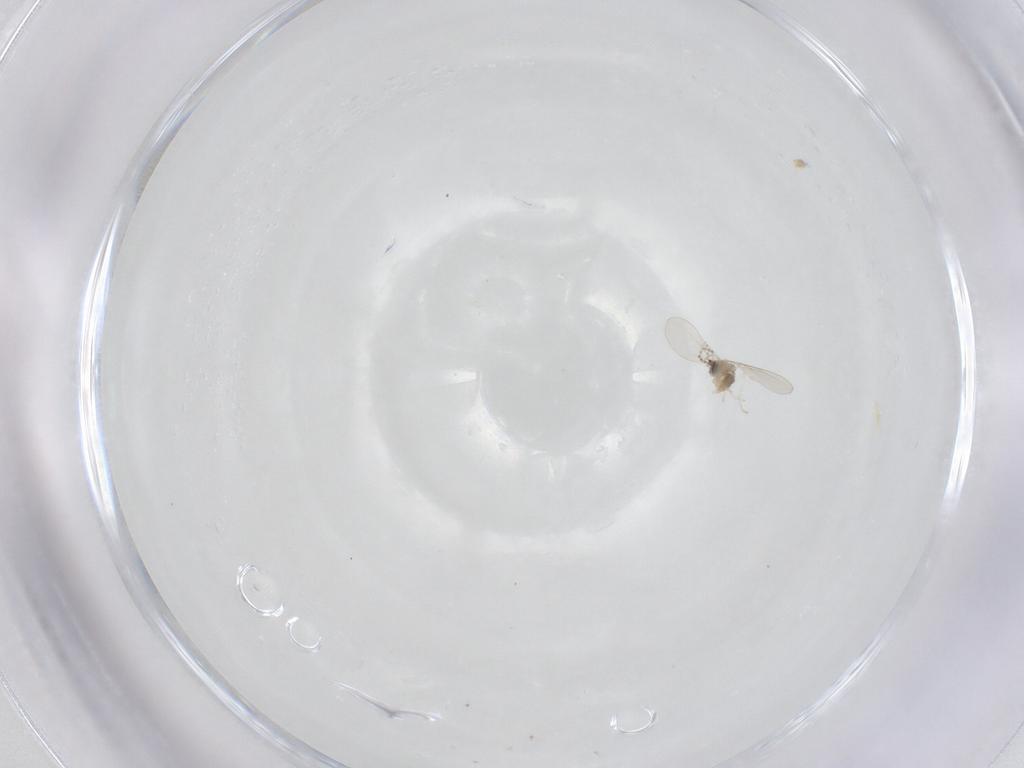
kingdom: Animalia
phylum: Arthropoda
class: Insecta
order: Diptera
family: Cecidomyiidae
